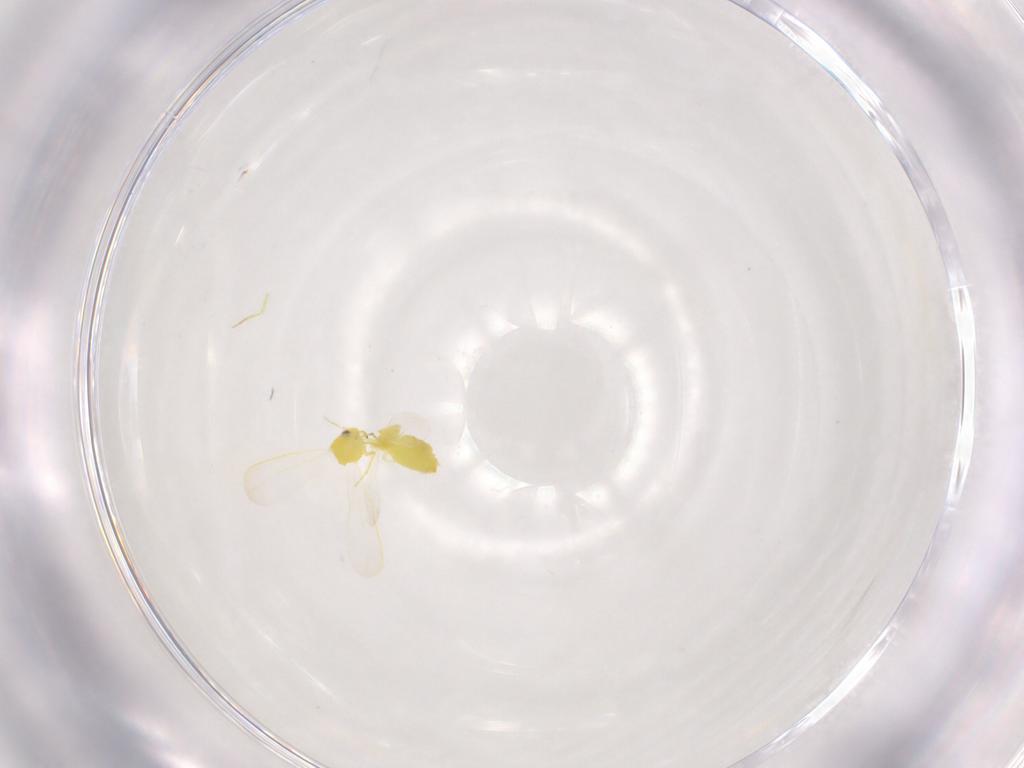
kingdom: Animalia
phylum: Arthropoda
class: Insecta
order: Hemiptera
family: Aleyrodidae
